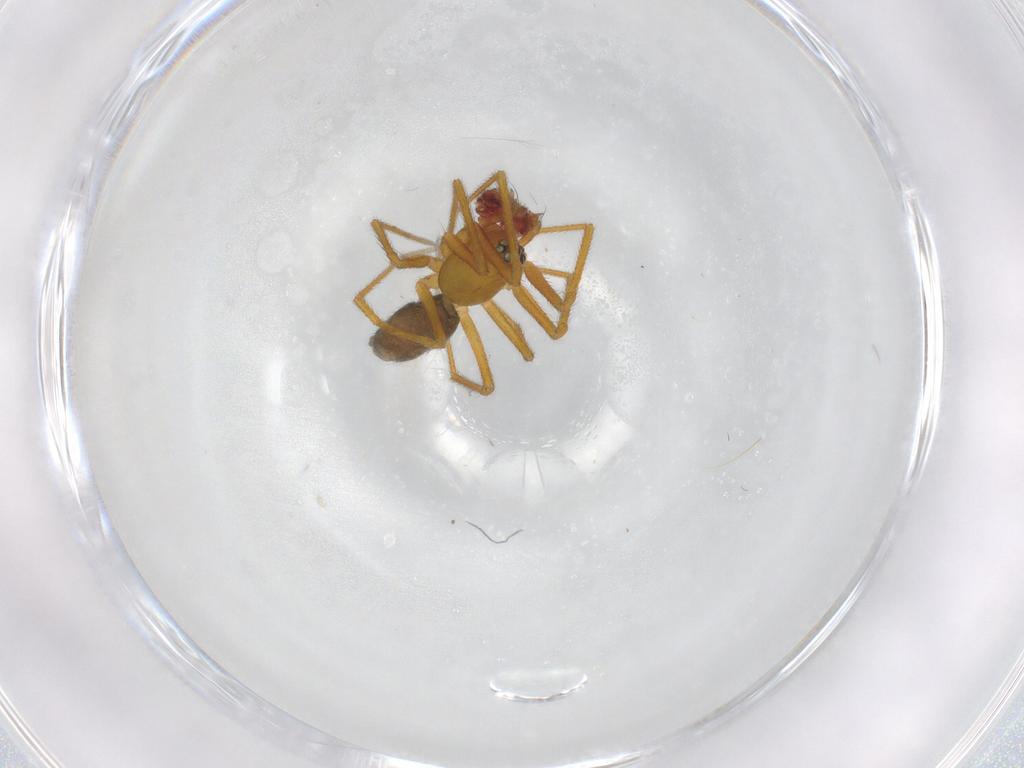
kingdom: Animalia
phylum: Arthropoda
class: Arachnida
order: Araneae
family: Linyphiidae
